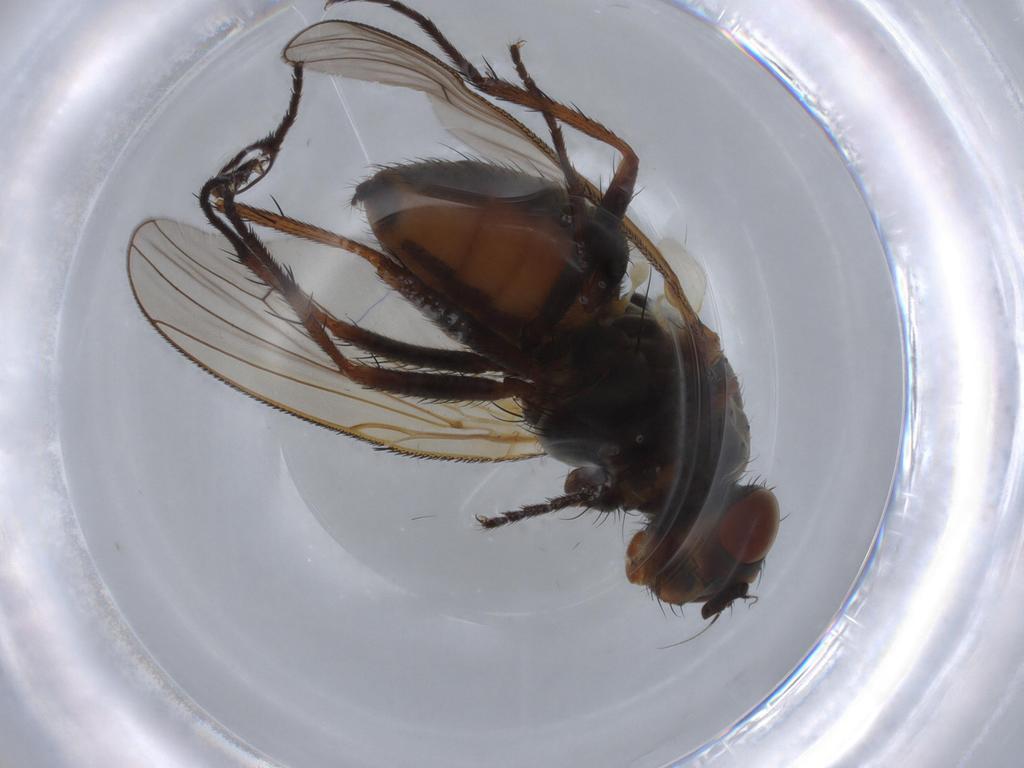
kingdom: Animalia
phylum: Arthropoda
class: Insecta
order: Diptera
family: Anthomyiidae
